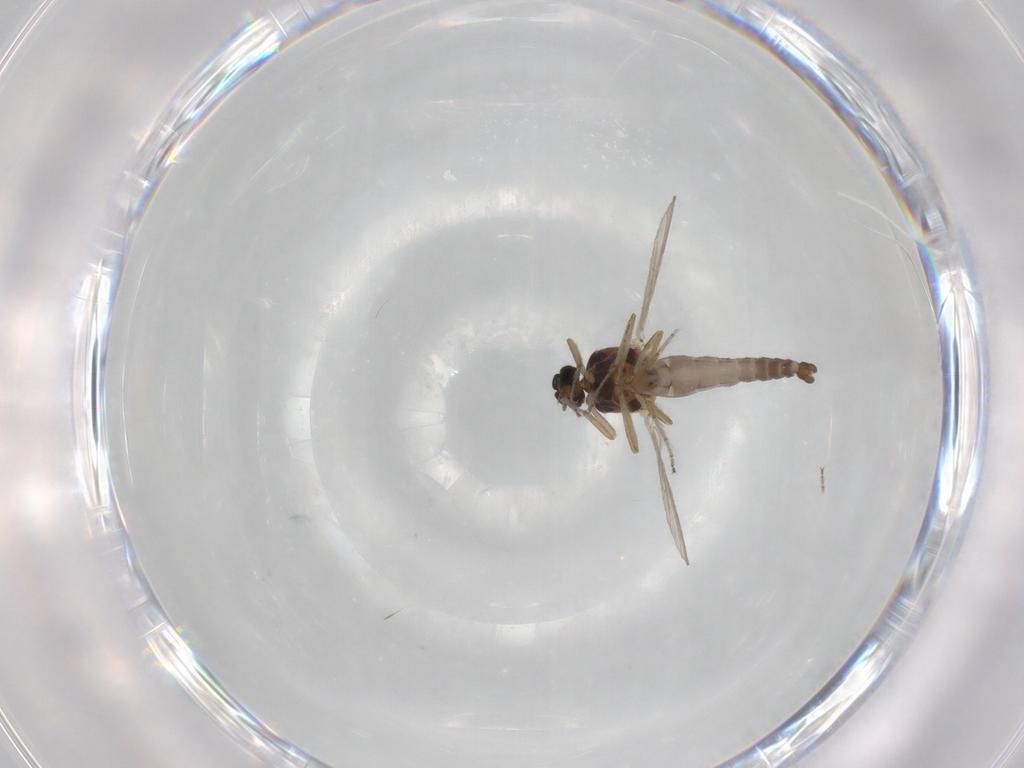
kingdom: Animalia
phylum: Arthropoda
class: Insecta
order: Diptera
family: Ceratopogonidae
